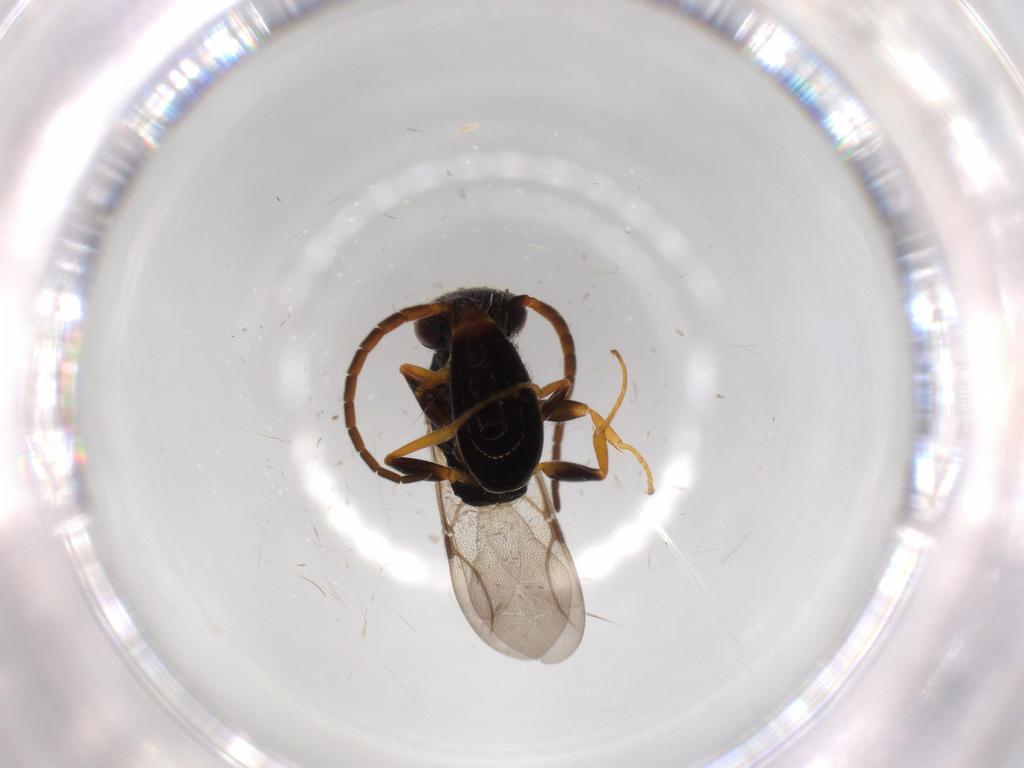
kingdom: Animalia
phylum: Arthropoda
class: Insecta
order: Hymenoptera
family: Bethylidae
